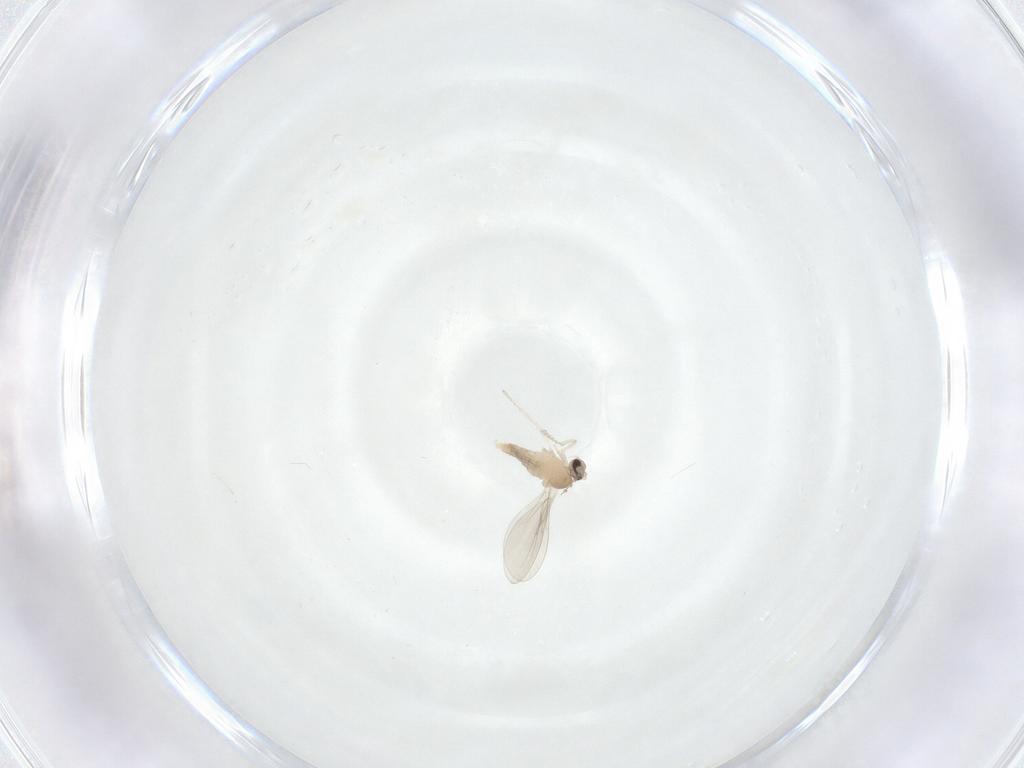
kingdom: Animalia
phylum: Arthropoda
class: Insecta
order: Diptera
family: Cecidomyiidae
